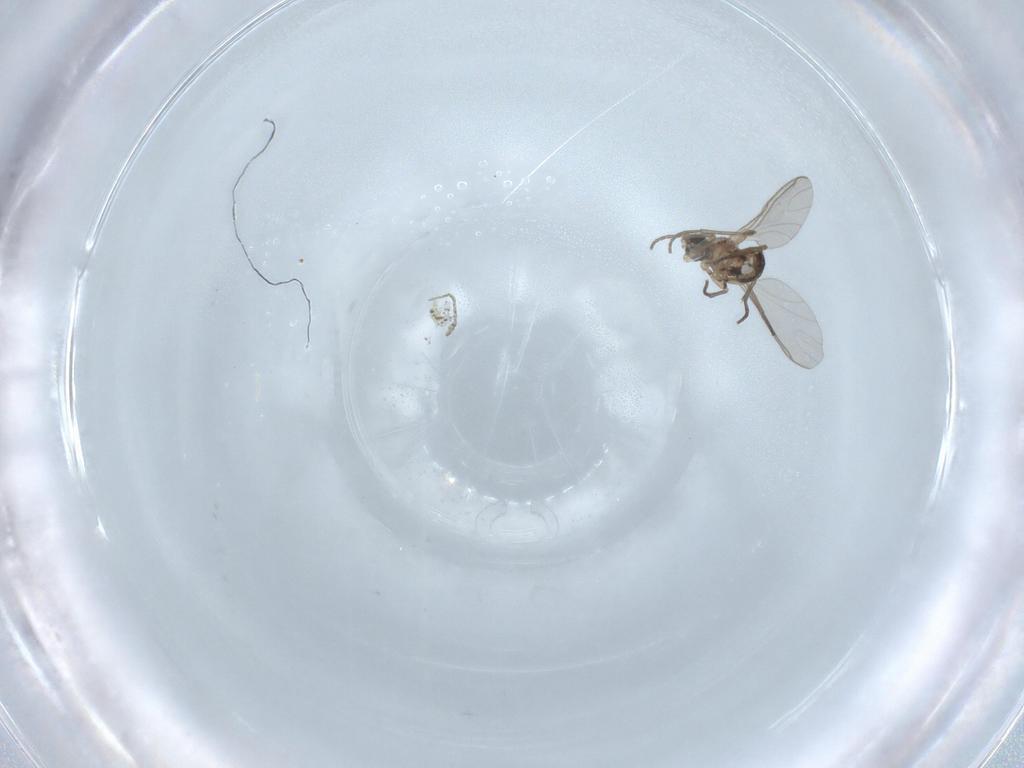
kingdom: Animalia
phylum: Arthropoda
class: Insecta
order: Diptera
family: Sciaridae
